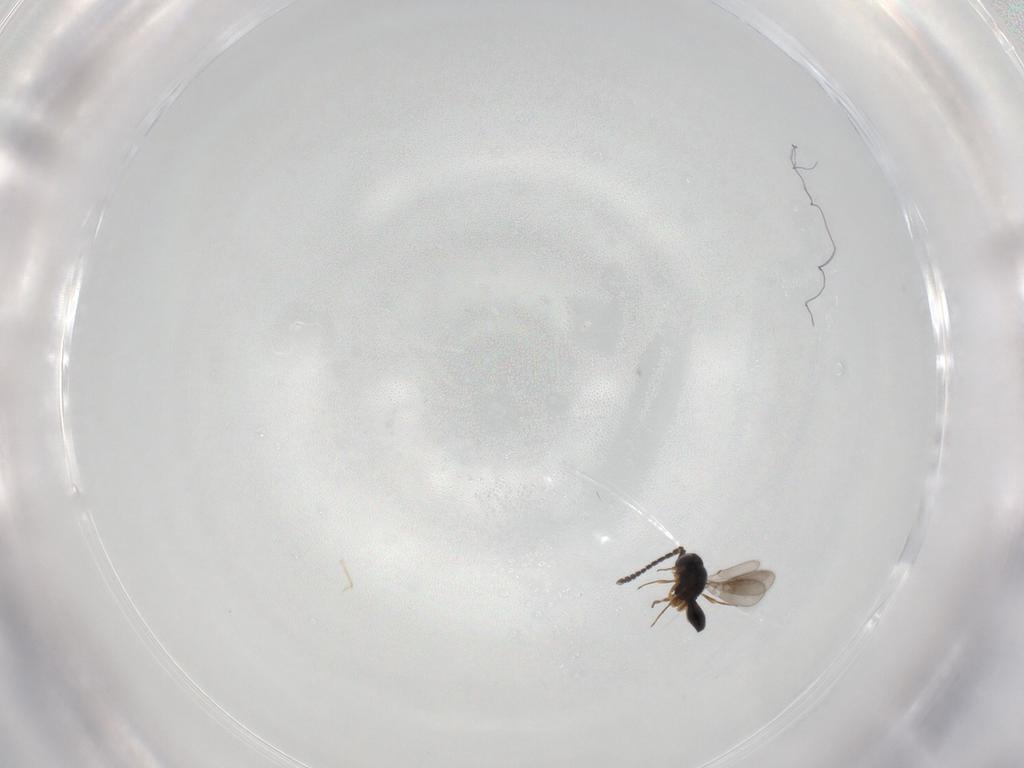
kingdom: Animalia
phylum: Arthropoda
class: Insecta
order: Hymenoptera
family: Scelionidae
